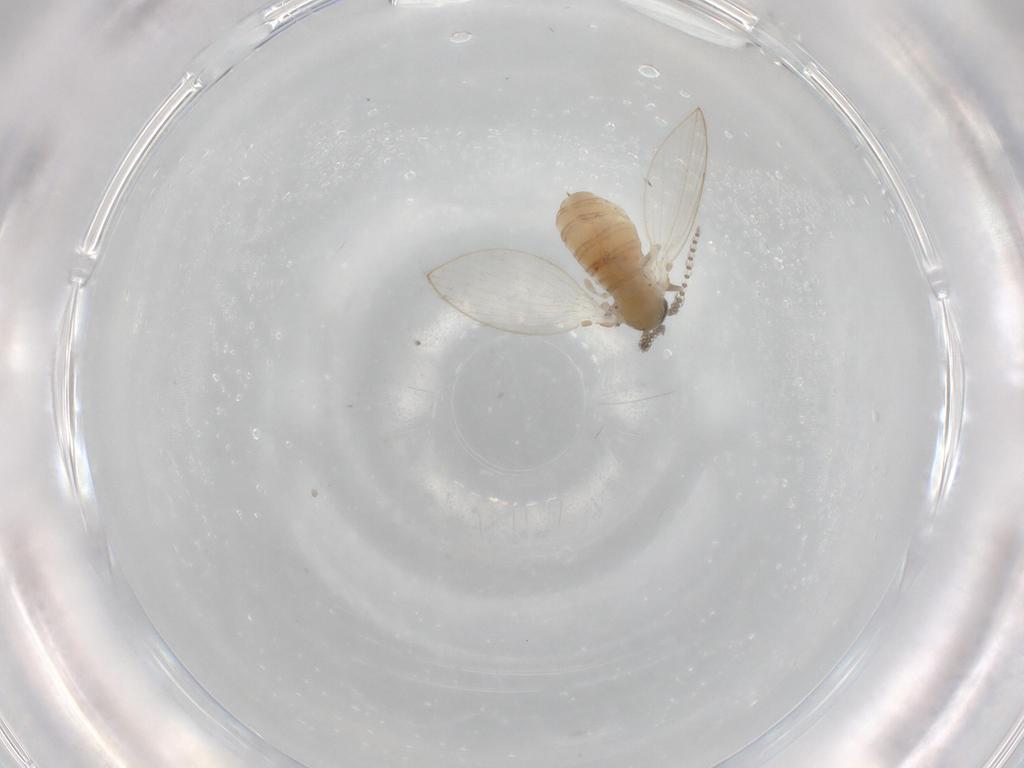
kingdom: Animalia
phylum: Arthropoda
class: Insecta
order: Diptera
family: Psychodidae
